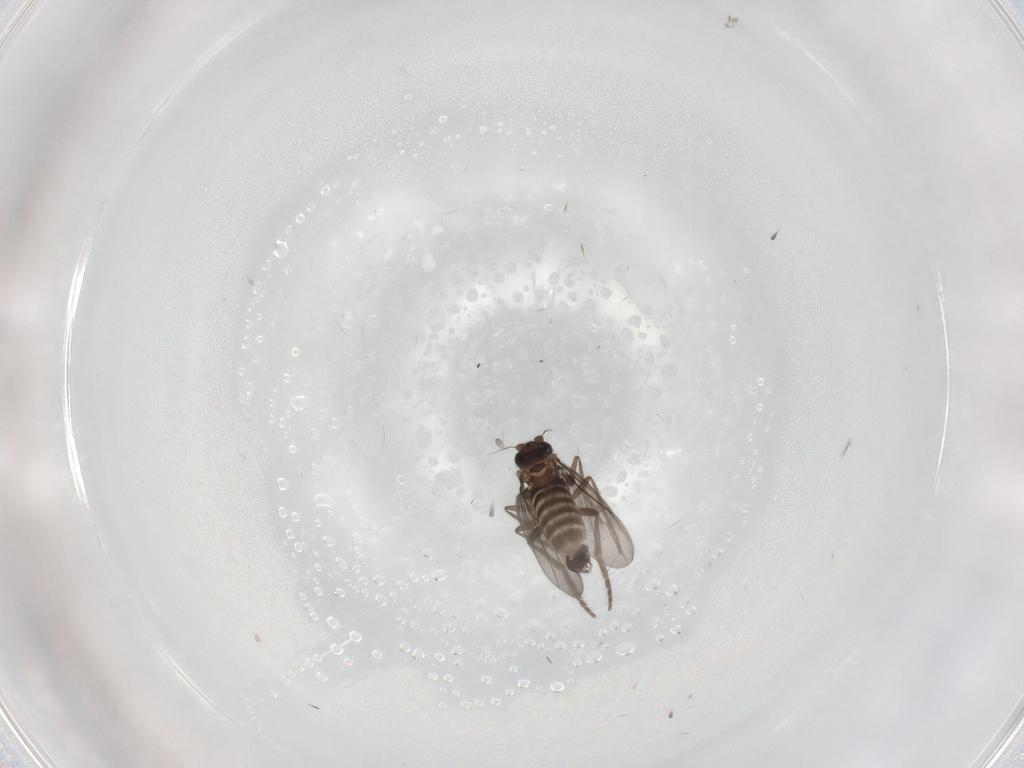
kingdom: Animalia
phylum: Arthropoda
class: Insecta
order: Diptera
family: Phoridae
